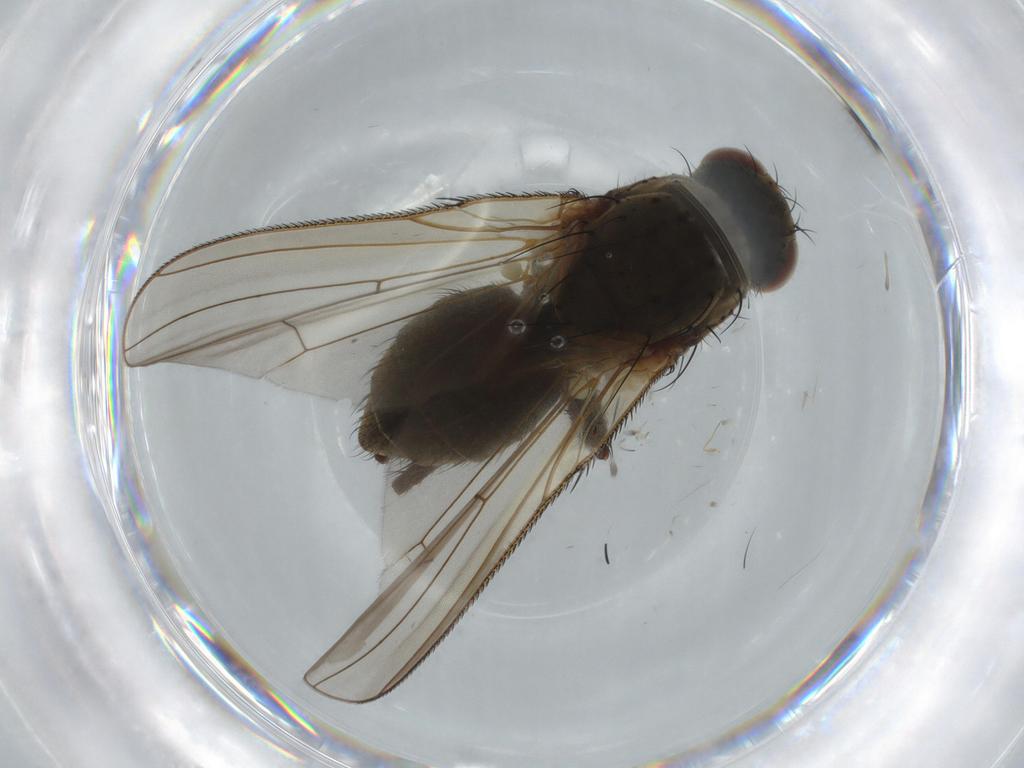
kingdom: Animalia
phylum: Arthropoda
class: Insecta
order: Diptera
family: Anthomyiidae
